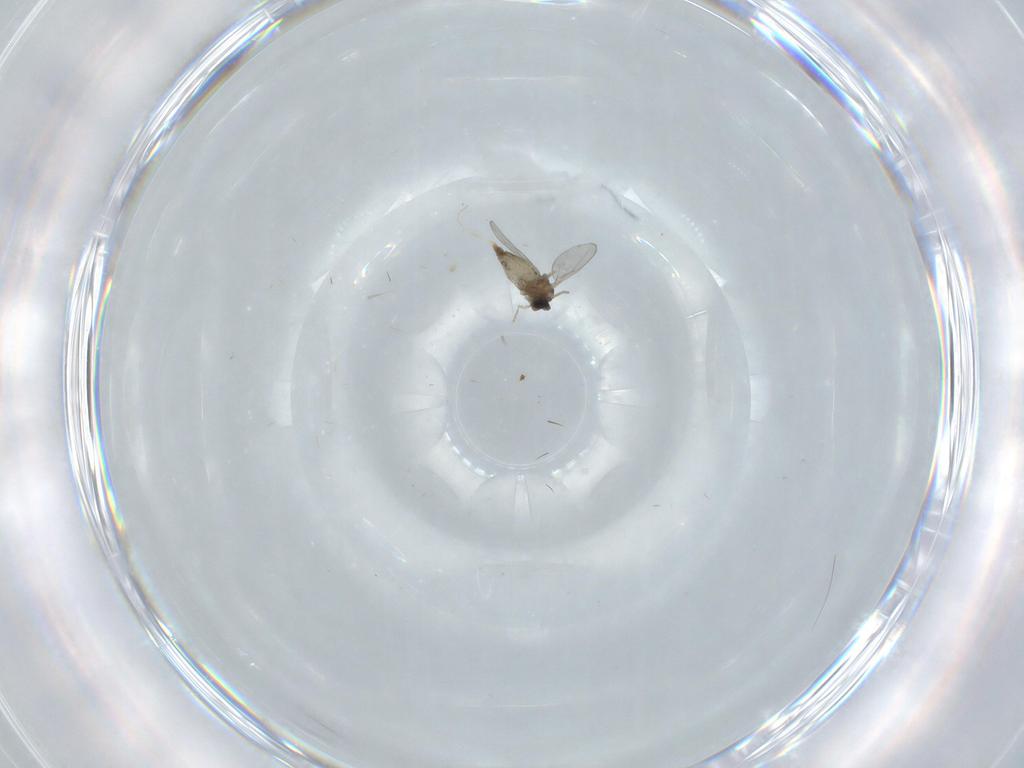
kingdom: Animalia
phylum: Arthropoda
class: Insecta
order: Diptera
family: Cecidomyiidae
